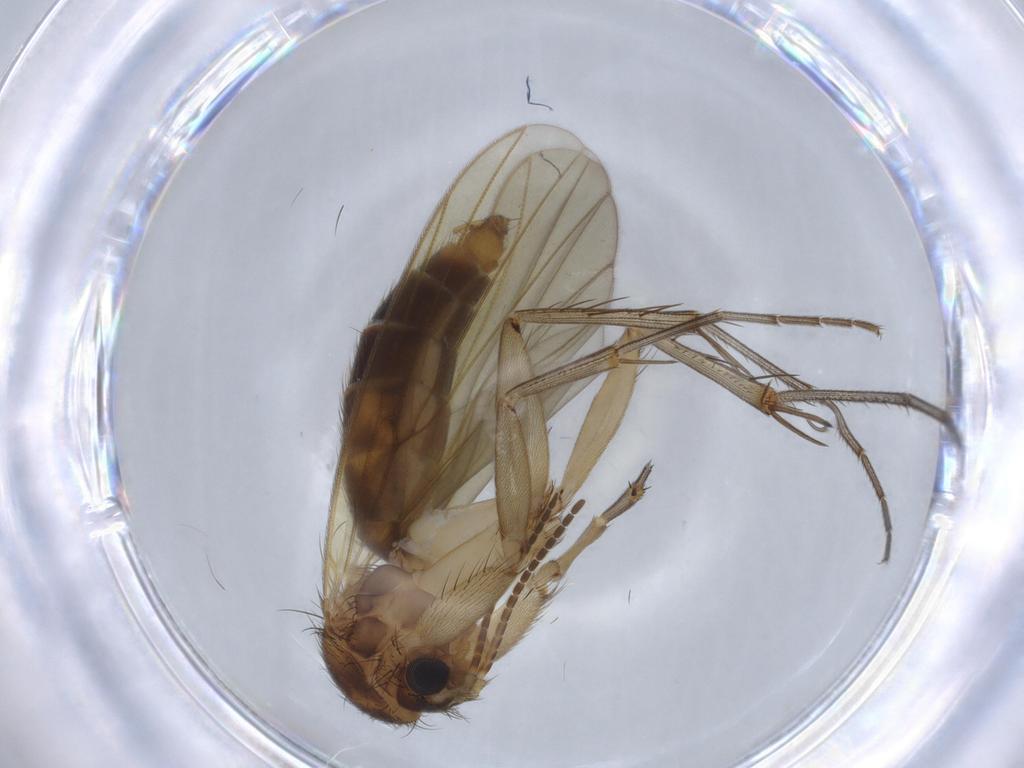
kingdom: Animalia
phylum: Arthropoda
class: Insecta
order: Diptera
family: Heleomyzidae
